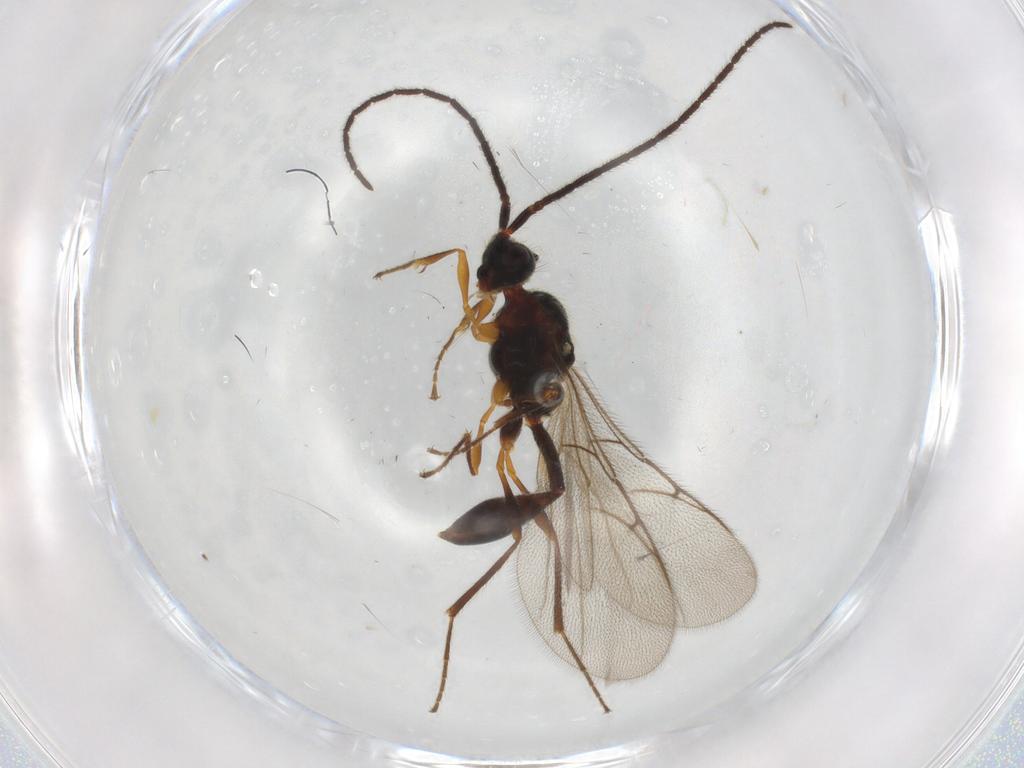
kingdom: Animalia
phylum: Arthropoda
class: Insecta
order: Hymenoptera
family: Diapriidae
